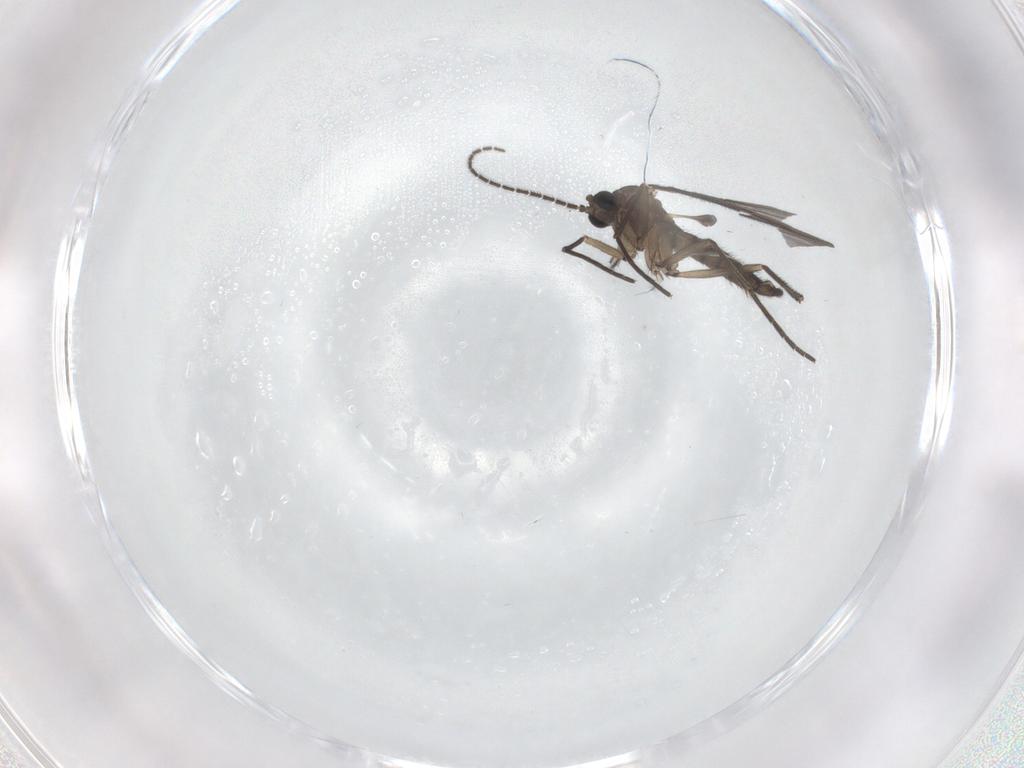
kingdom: Animalia
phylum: Arthropoda
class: Insecta
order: Diptera
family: Sciaridae
